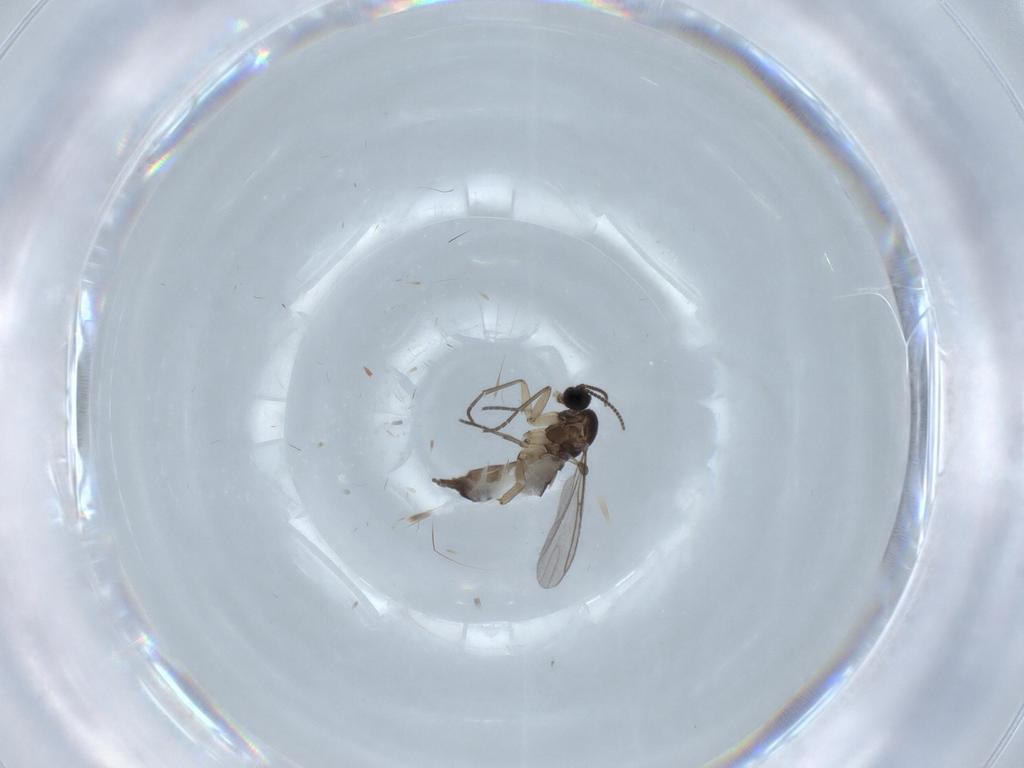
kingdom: Animalia
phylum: Arthropoda
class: Insecta
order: Diptera
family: Sciaridae
